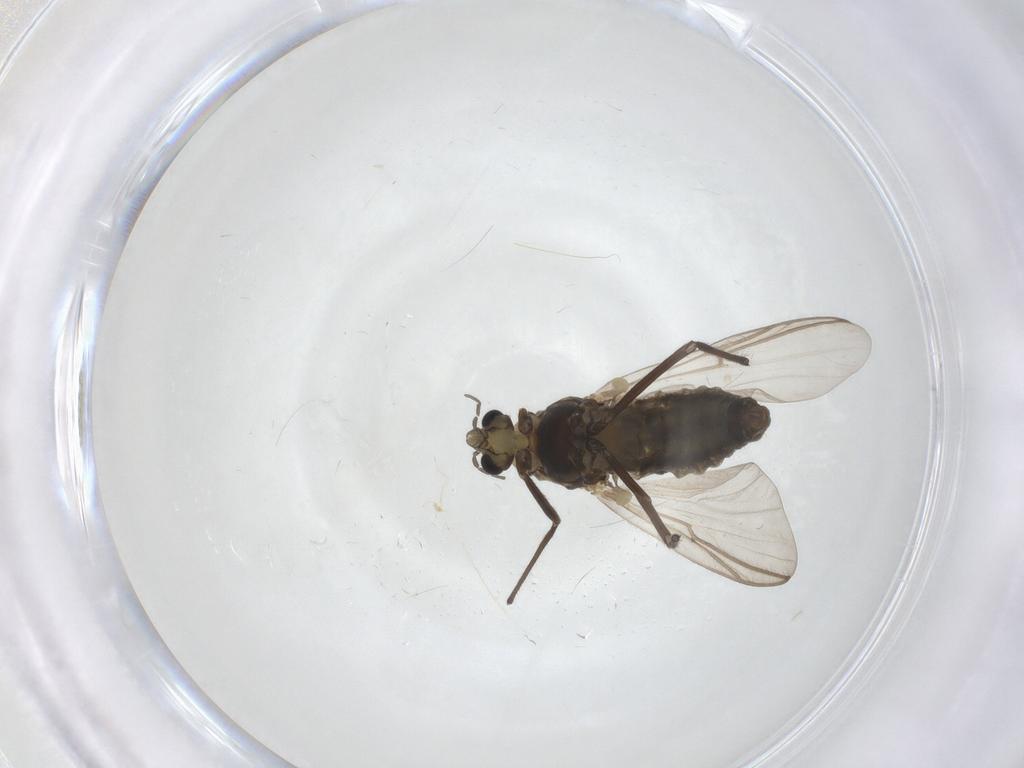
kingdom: Animalia
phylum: Arthropoda
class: Insecta
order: Diptera
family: Chironomidae
